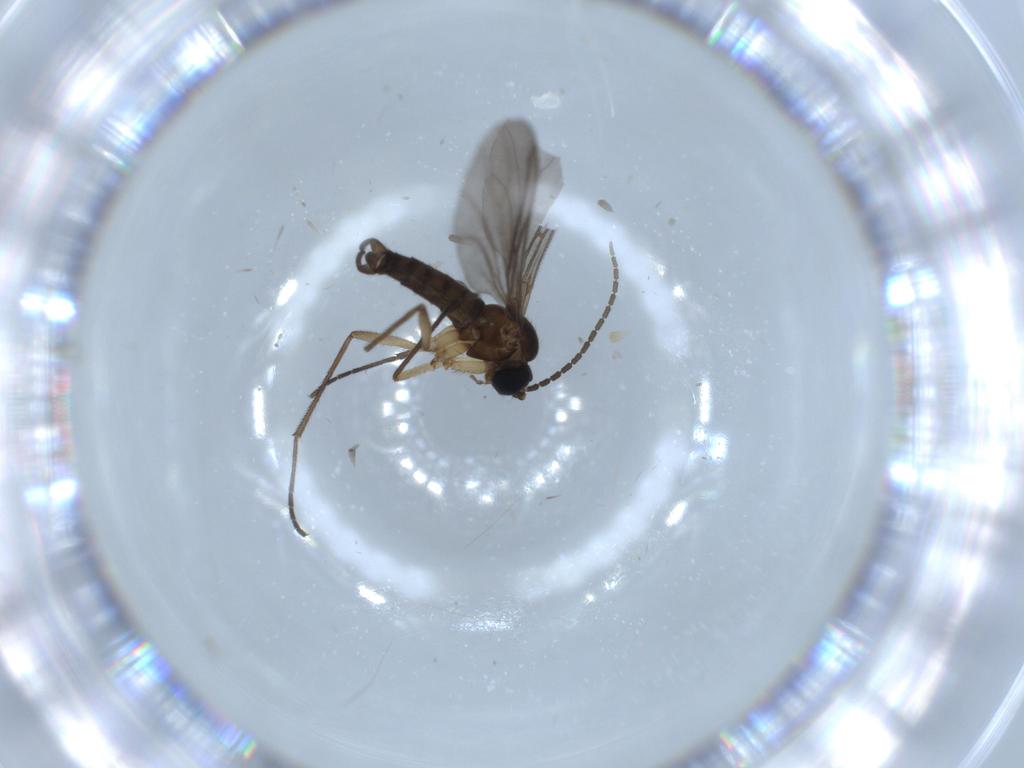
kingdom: Animalia
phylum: Arthropoda
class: Insecta
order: Diptera
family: Sciaridae
